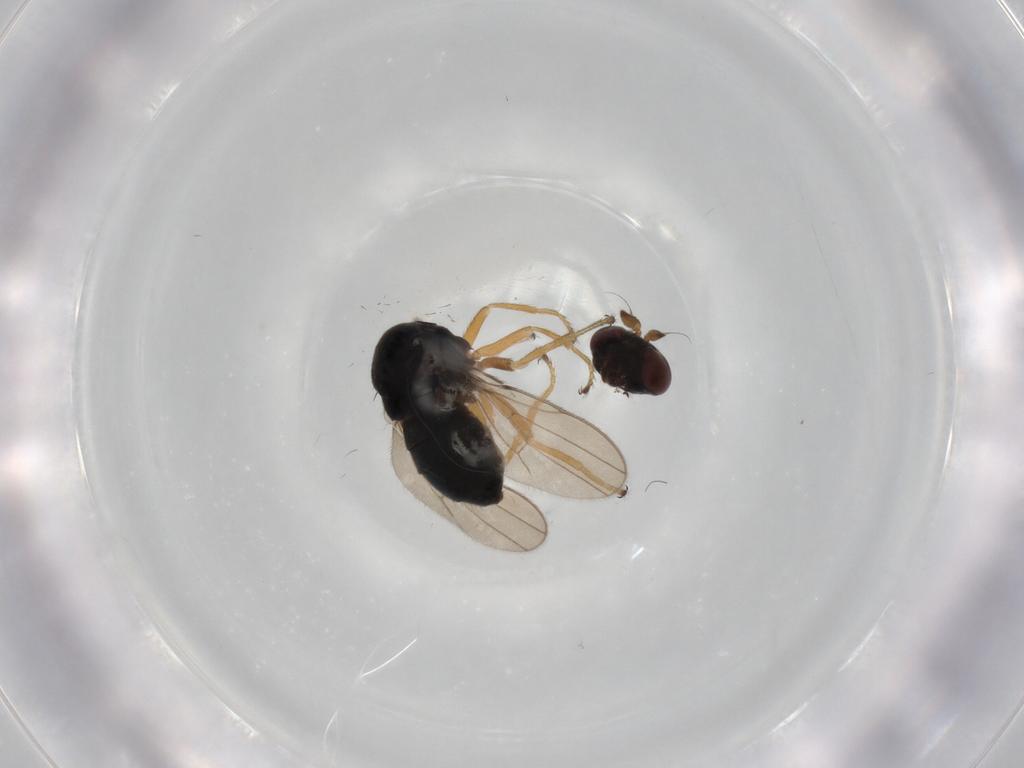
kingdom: Animalia
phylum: Arthropoda
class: Insecta
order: Diptera
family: Ephydridae
